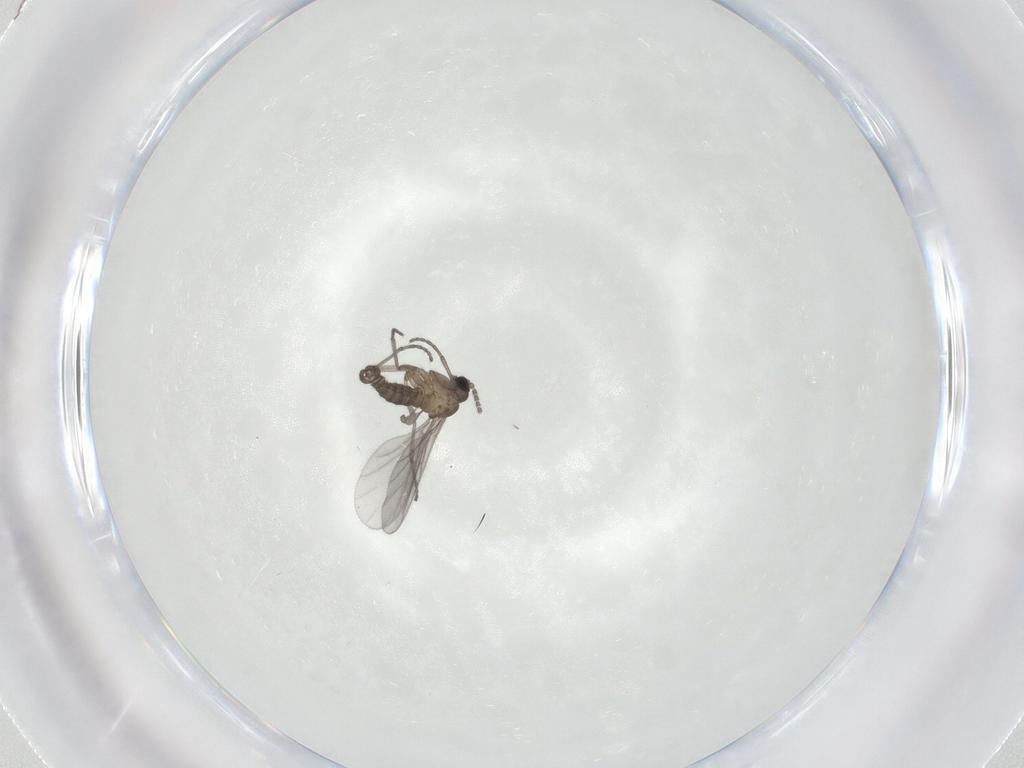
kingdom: Animalia
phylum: Arthropoda
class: Insecta
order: Diptera
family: Sciaridae
